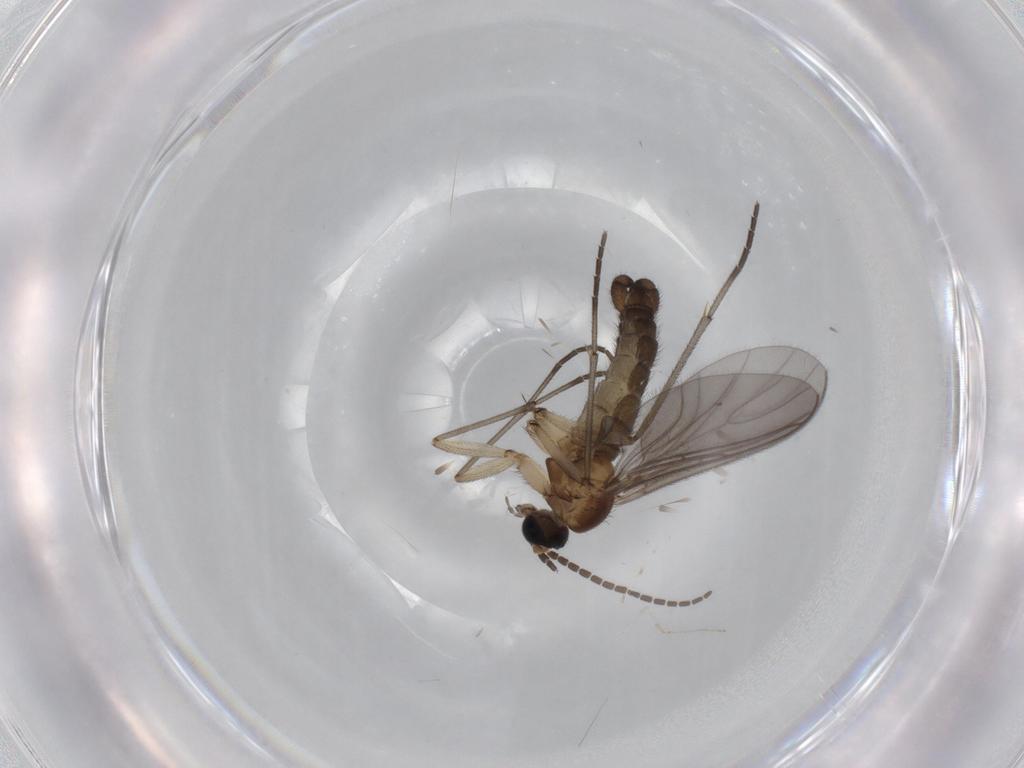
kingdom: Animalia
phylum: Arthropoda
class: Insecta
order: Diptera
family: Sciaridae
